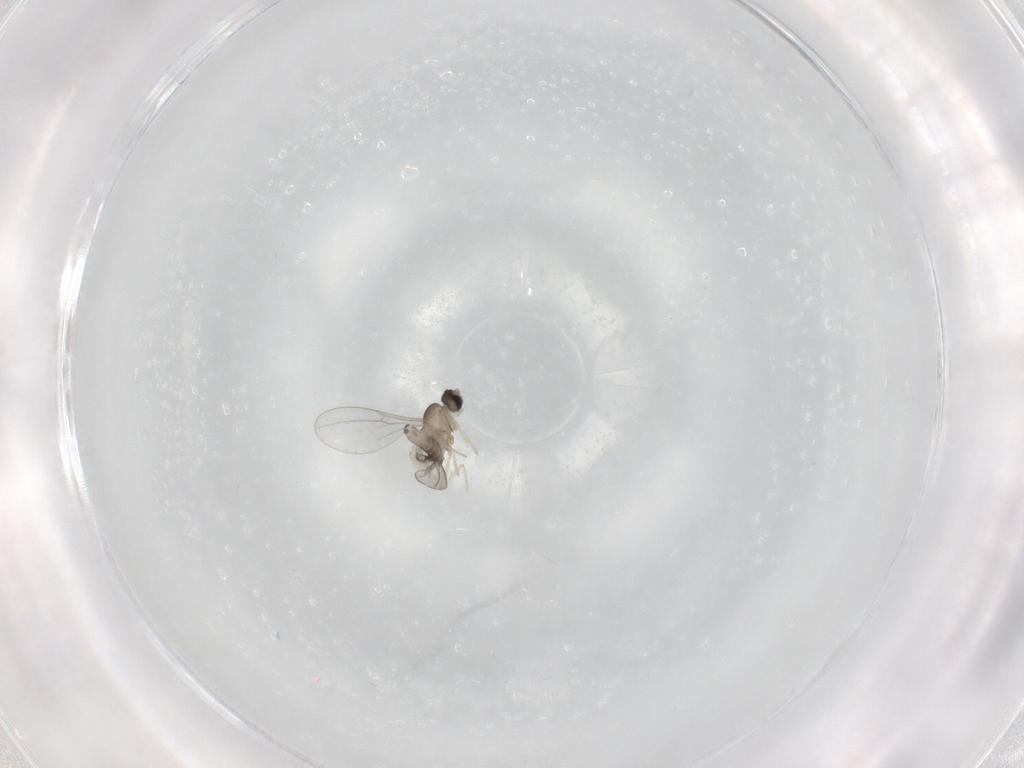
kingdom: Animalia
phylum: Arthropoda
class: Insecta
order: Diptera
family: Cecidomyiidae
